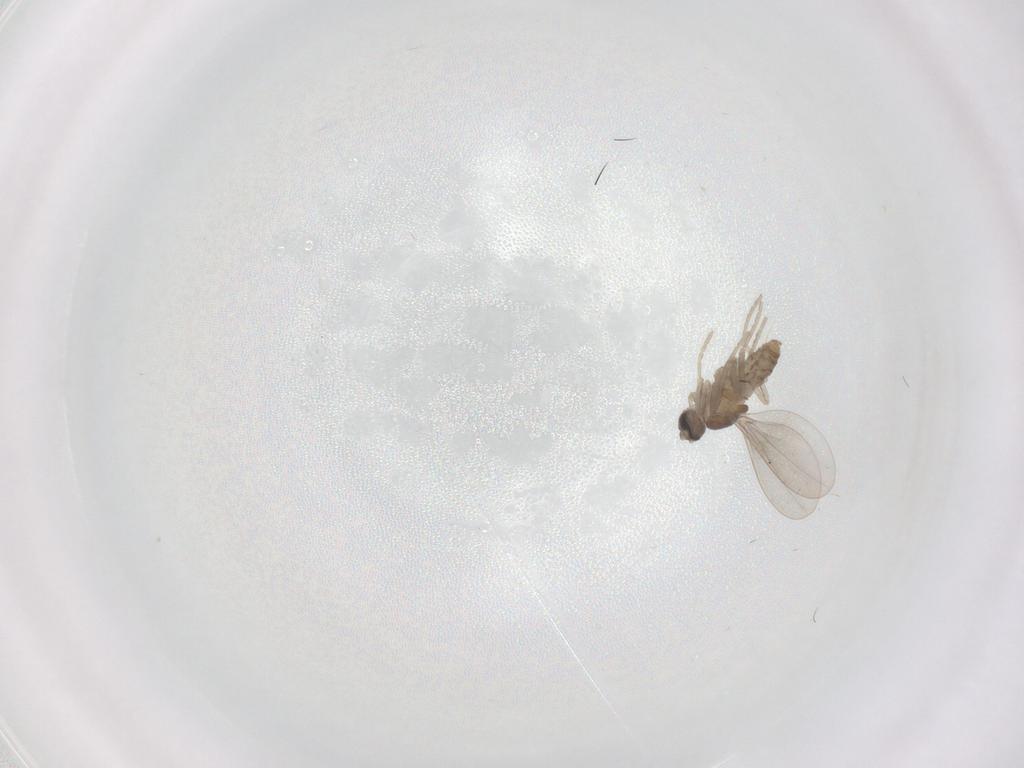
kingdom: Animalia
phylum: Arthropoda
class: Insecta
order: Diptera
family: Cecidomyiidae
